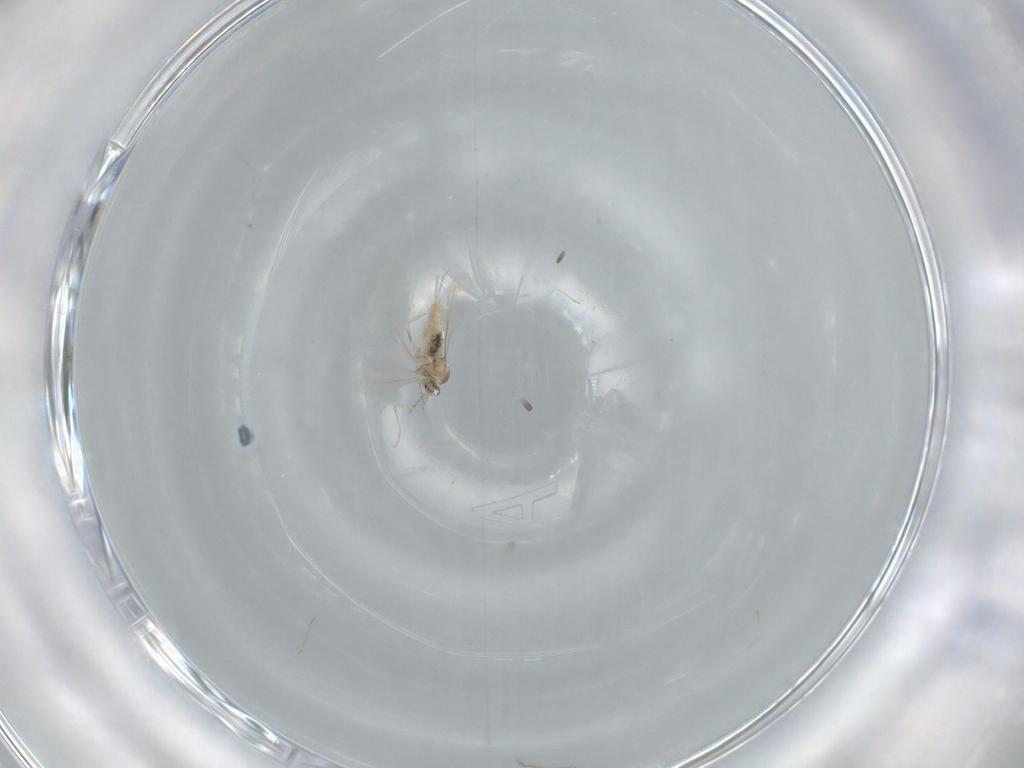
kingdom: Animalia
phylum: Arthropoda
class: Insecta
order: Diptera
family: Cecidomyiidae
